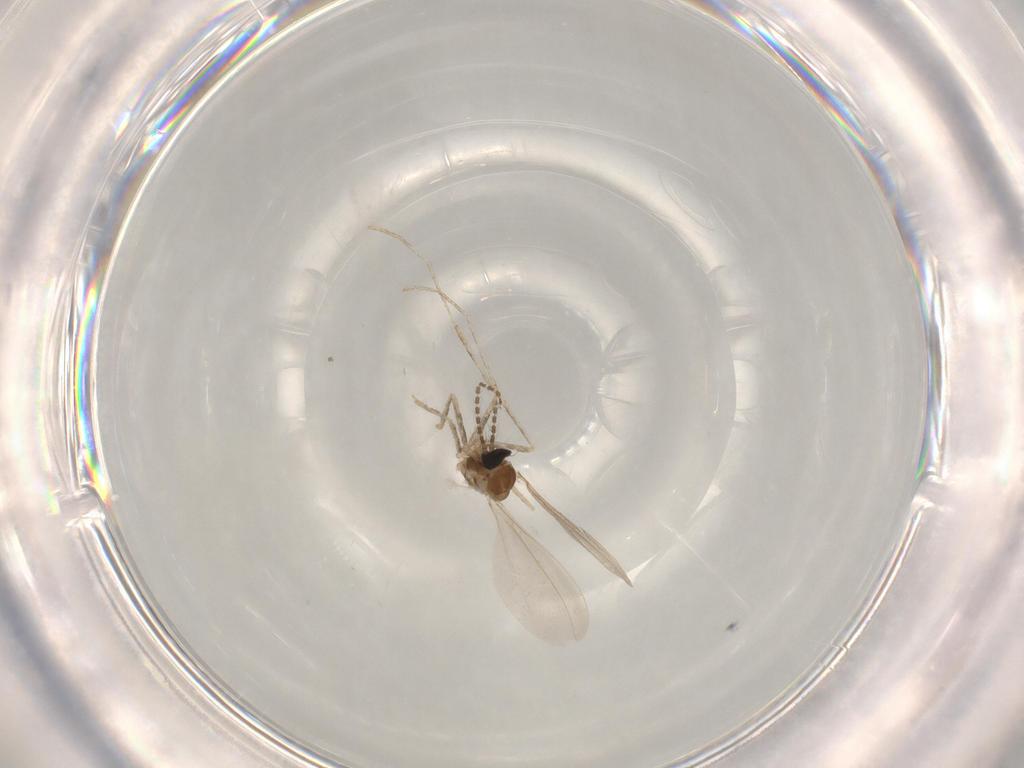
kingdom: Animalia
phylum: Arthropoda
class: Insecta
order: Diptera
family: Cecidomyiidae
